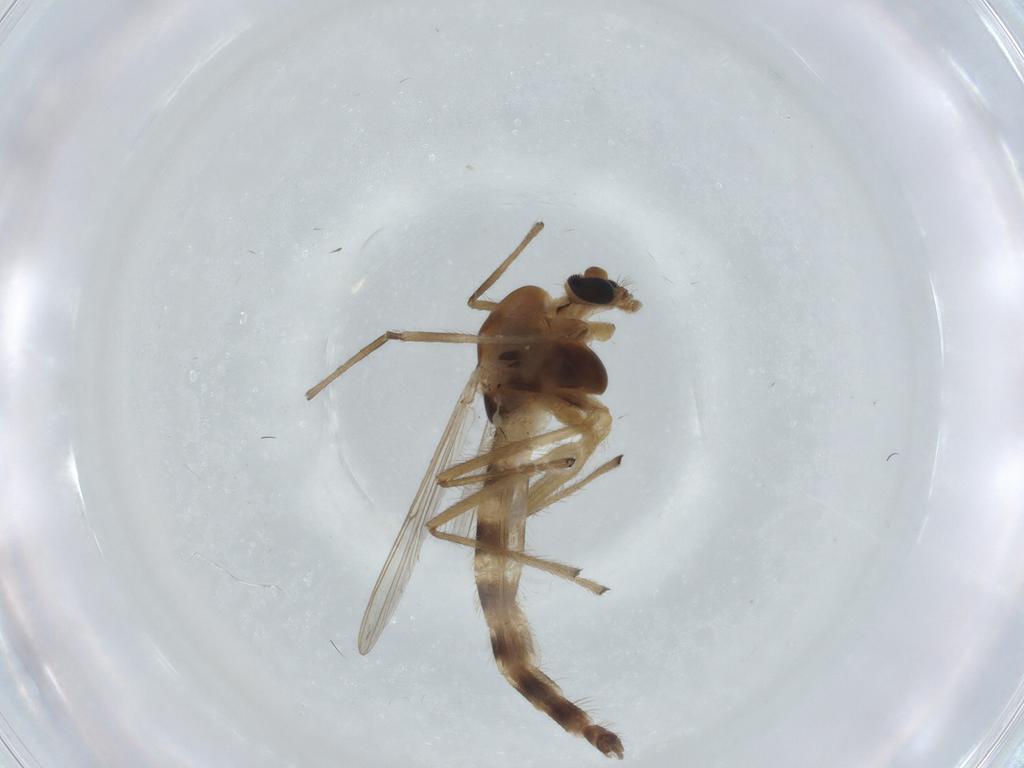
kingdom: Animalia
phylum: Arthropoda
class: Insecta
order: Diptera
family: Chironomidae
